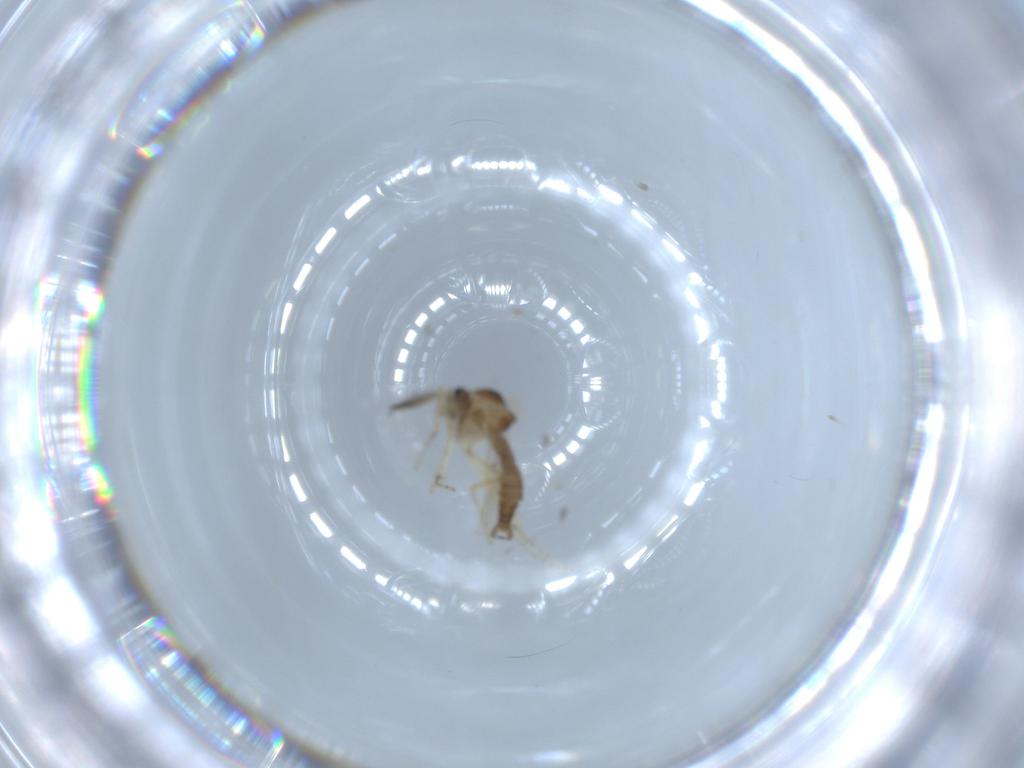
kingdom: Animalia
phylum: Arthropoda
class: Insecta
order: Diptera
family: Ceratopogonidae
